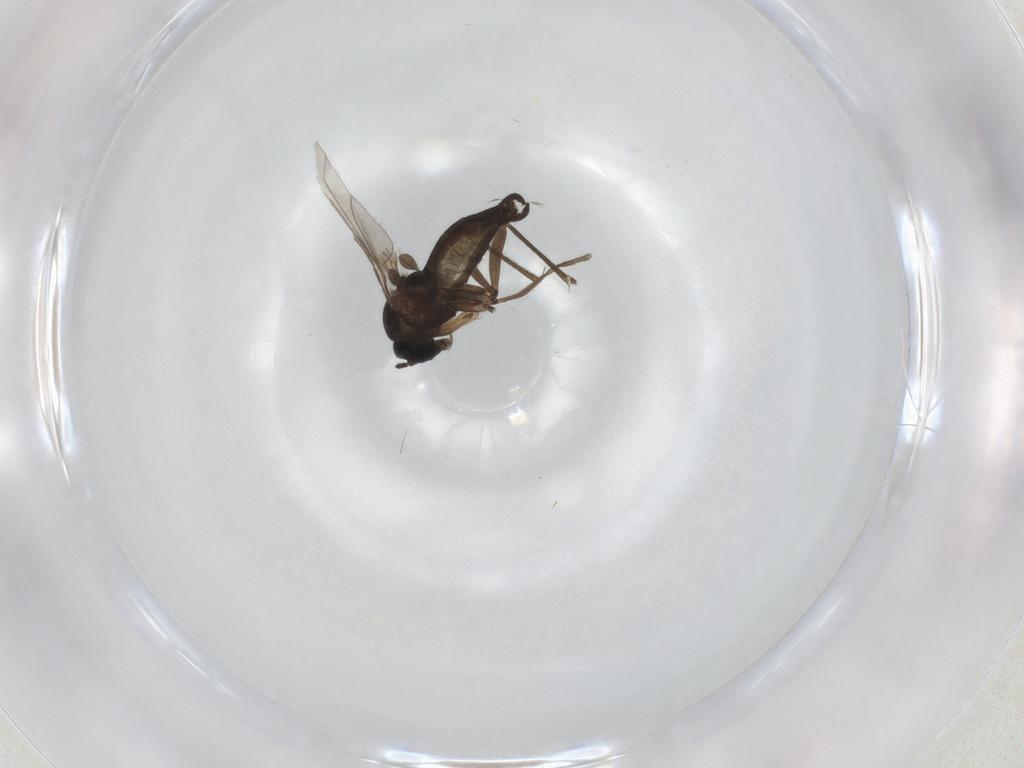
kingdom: Animalia
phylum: Arthropoda
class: Insecta
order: Diptera
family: Sciaridae
